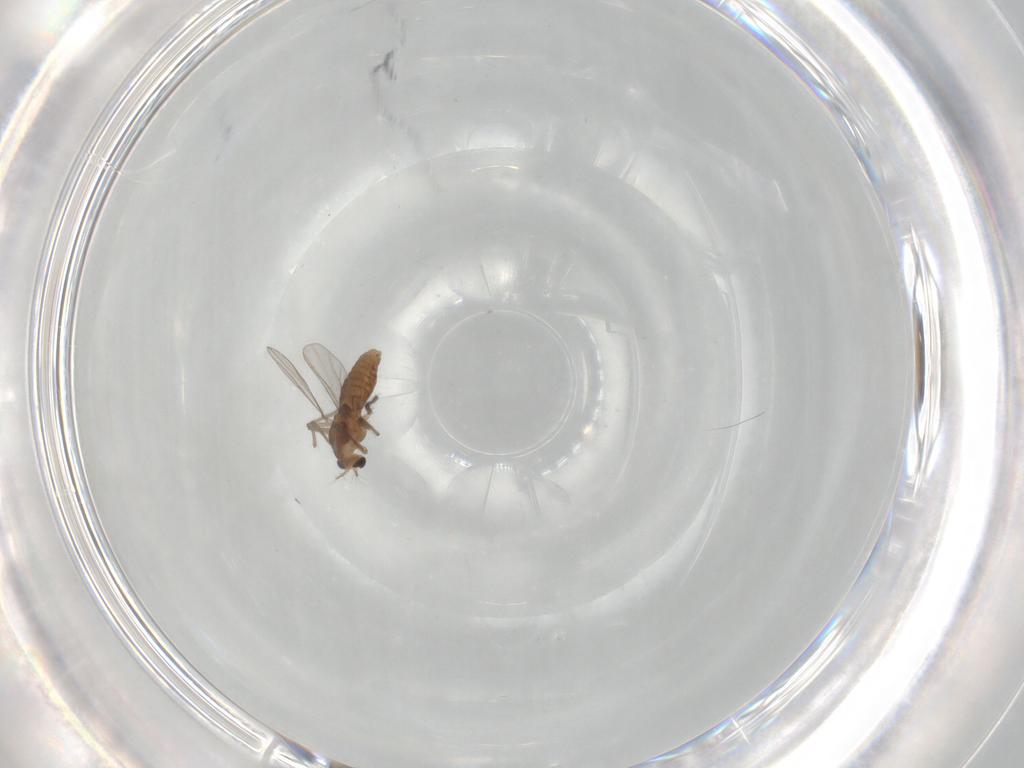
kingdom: Animalia
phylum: Arthropoda
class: Insecta
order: Diptera
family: Chironomidae
